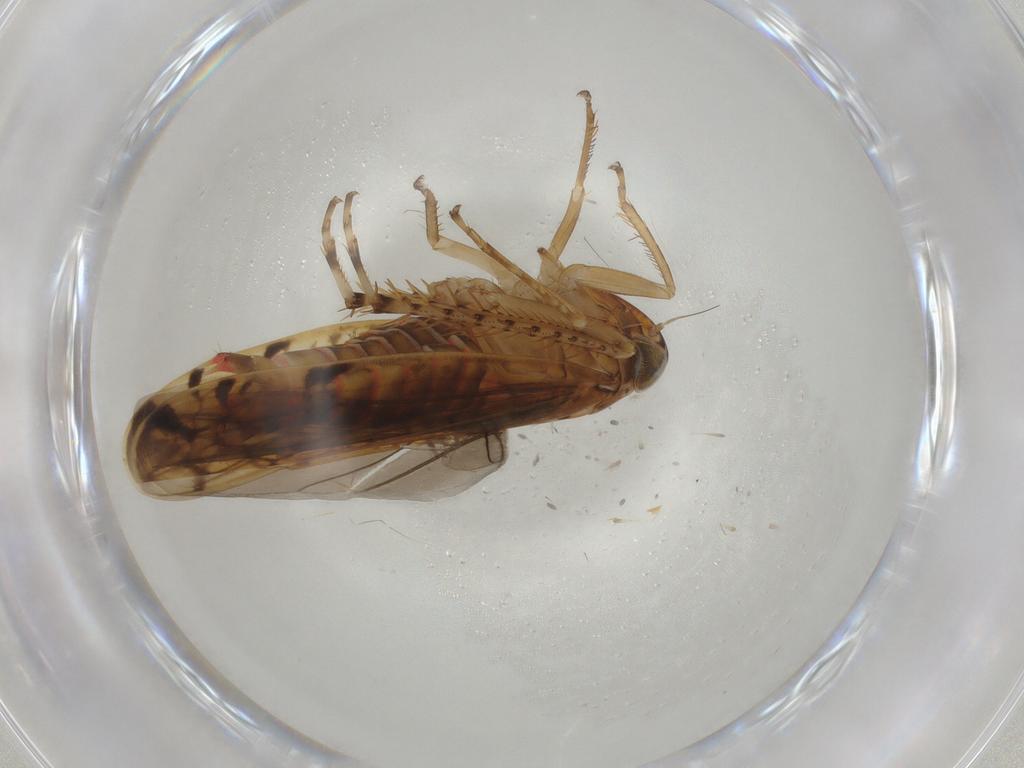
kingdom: Animalia
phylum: Arthropoda
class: Insecta
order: Hemiptera
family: Cicadellidae
